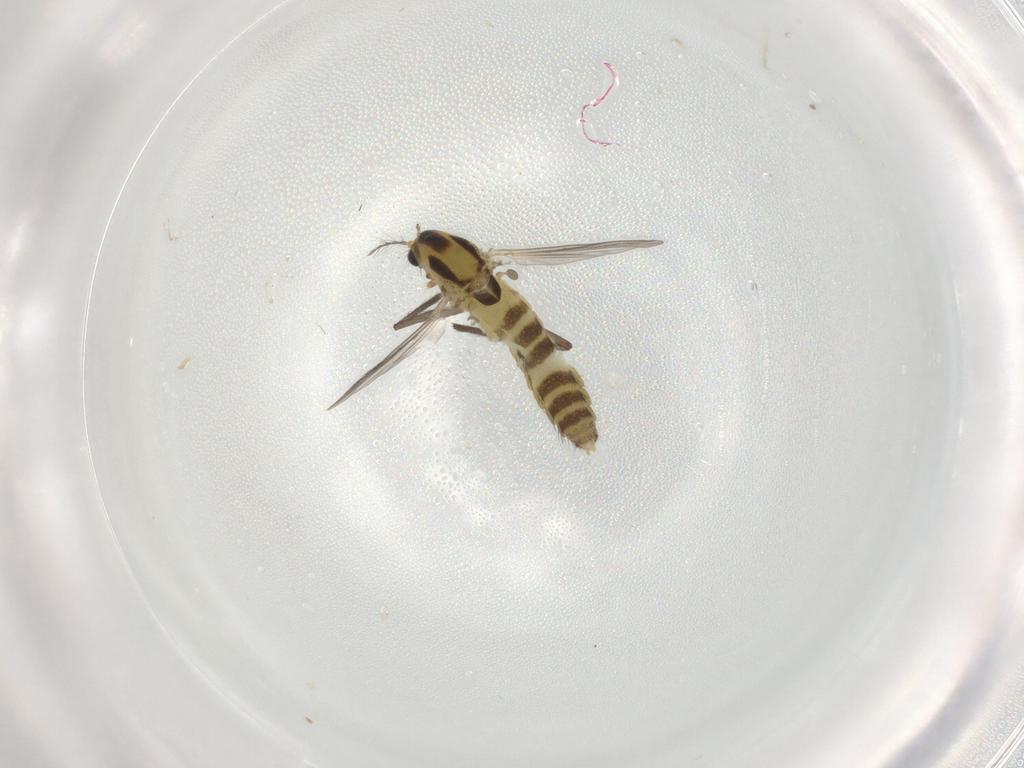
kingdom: Animalia
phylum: Arthropoda
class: Insecta
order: Diptera
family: Chironomidae
